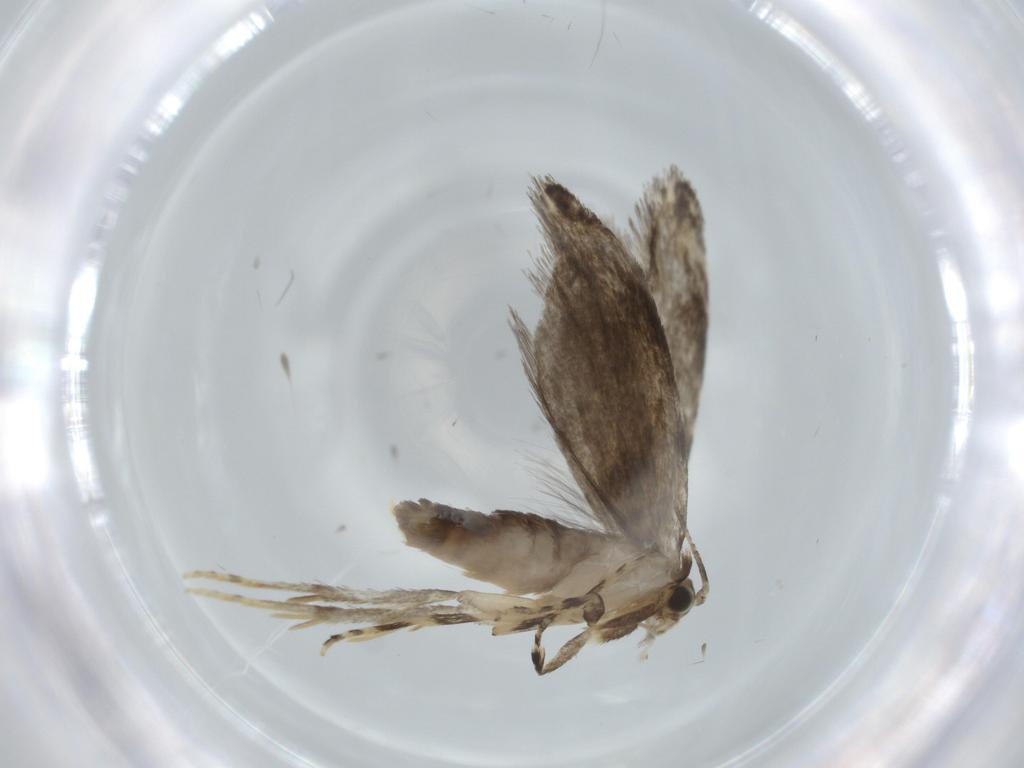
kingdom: Animalia
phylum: Arthropoda
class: Insecta
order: Lepidoptera
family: Tineidae
